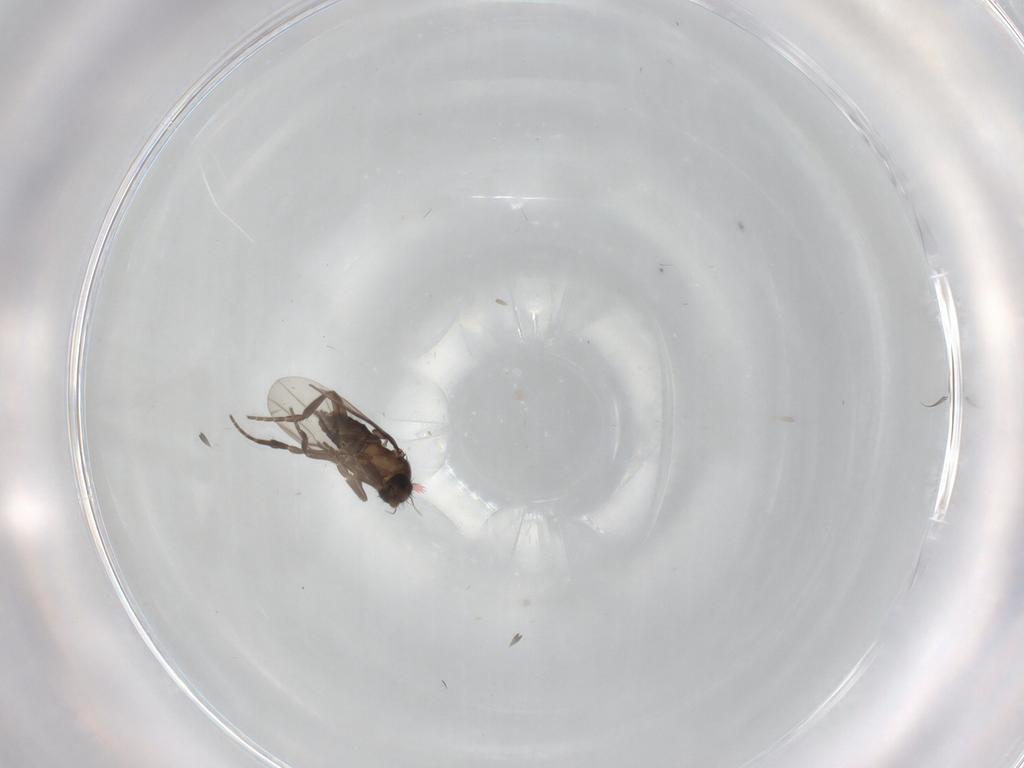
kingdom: Animalia
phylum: Arthropoda
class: Insecta
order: Diptera
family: Phoridae
